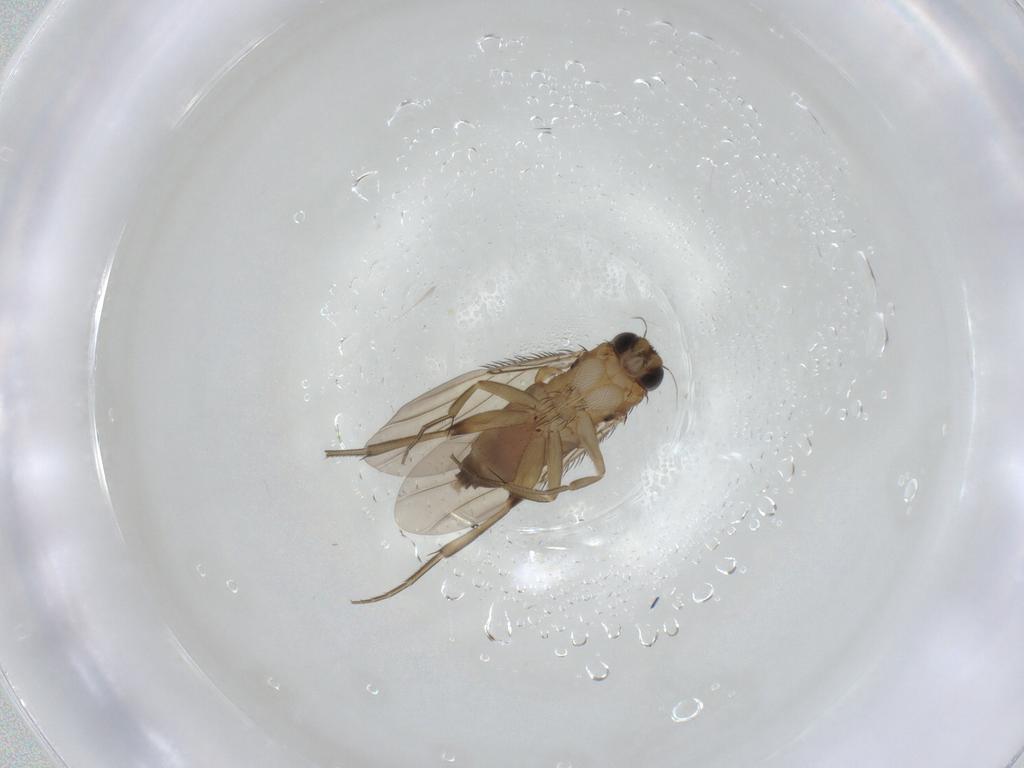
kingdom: Animalia
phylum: Arthropoda
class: Insecta
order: Diptera
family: Phoridae
